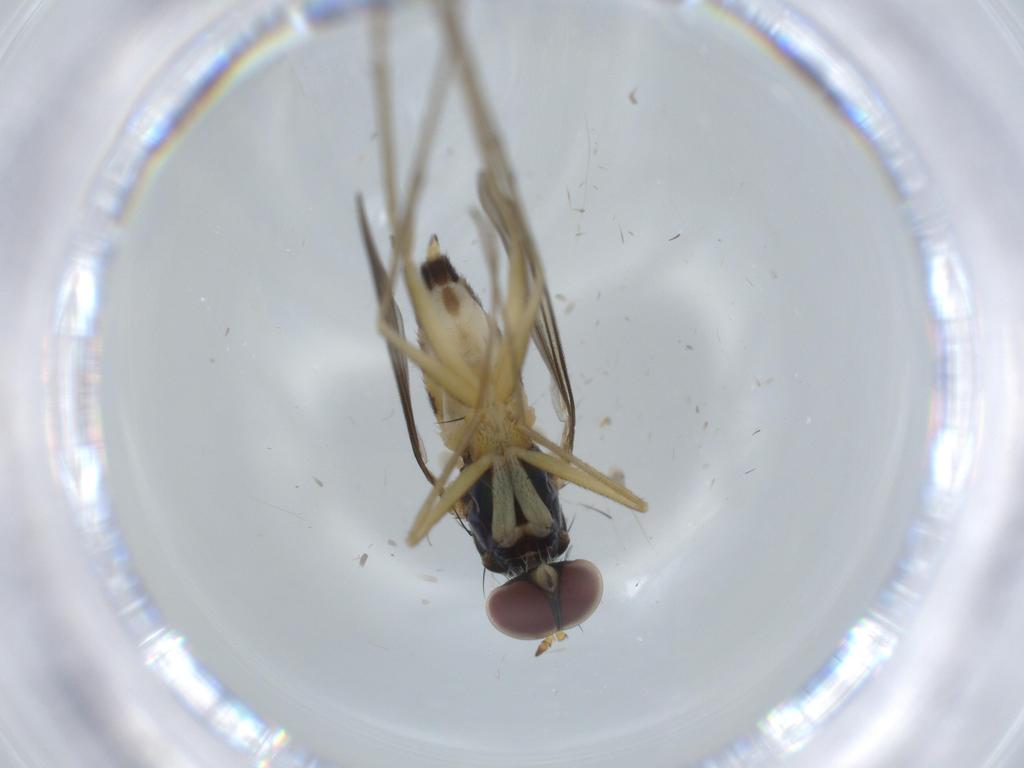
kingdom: Animalia
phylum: Arthropoda
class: Insecta
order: Diptera
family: Dolichopodidae
